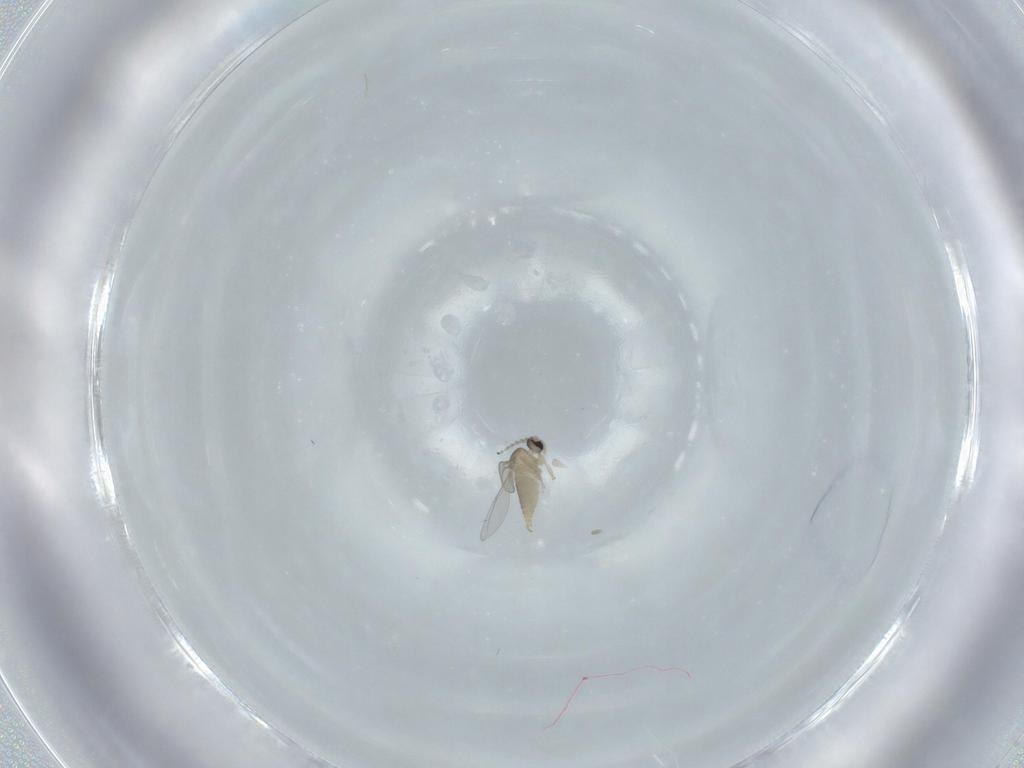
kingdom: Animalia
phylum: Arthropoda
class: Insecta
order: Diptera
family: Cecidomyiidae
